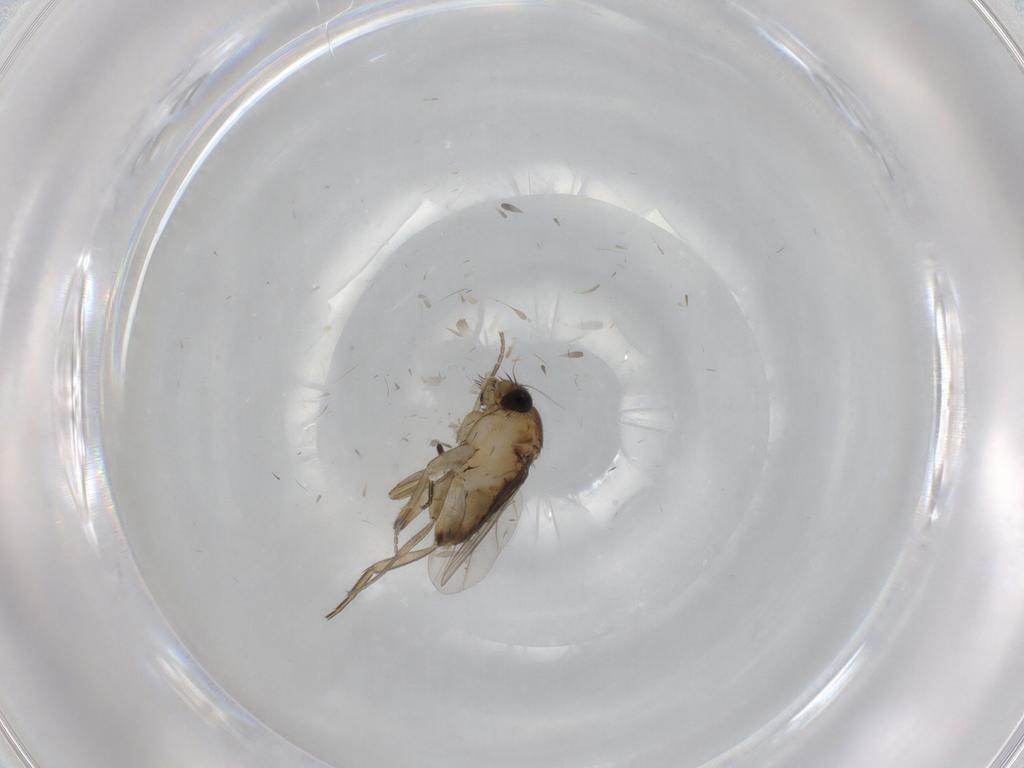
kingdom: Animalia
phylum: Arthropoda
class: Insecta
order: Diptera
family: Phoridae
